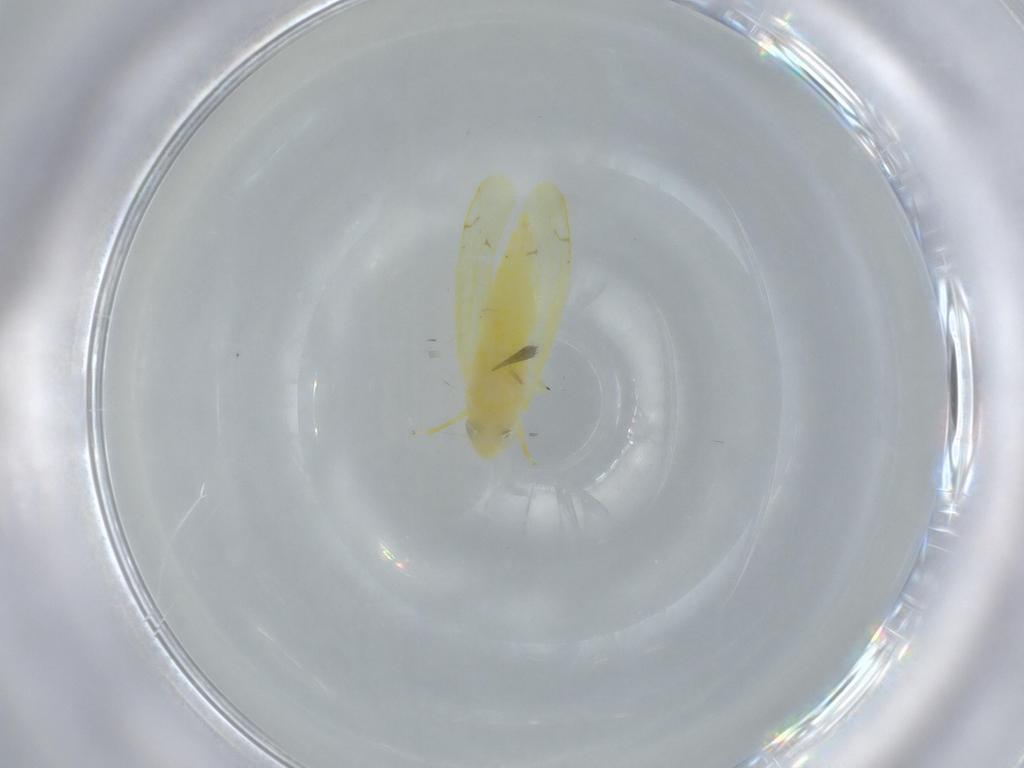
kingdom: Animalia
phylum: Arthropoda
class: Insecta
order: Hemiptera
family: Cicadellidae
